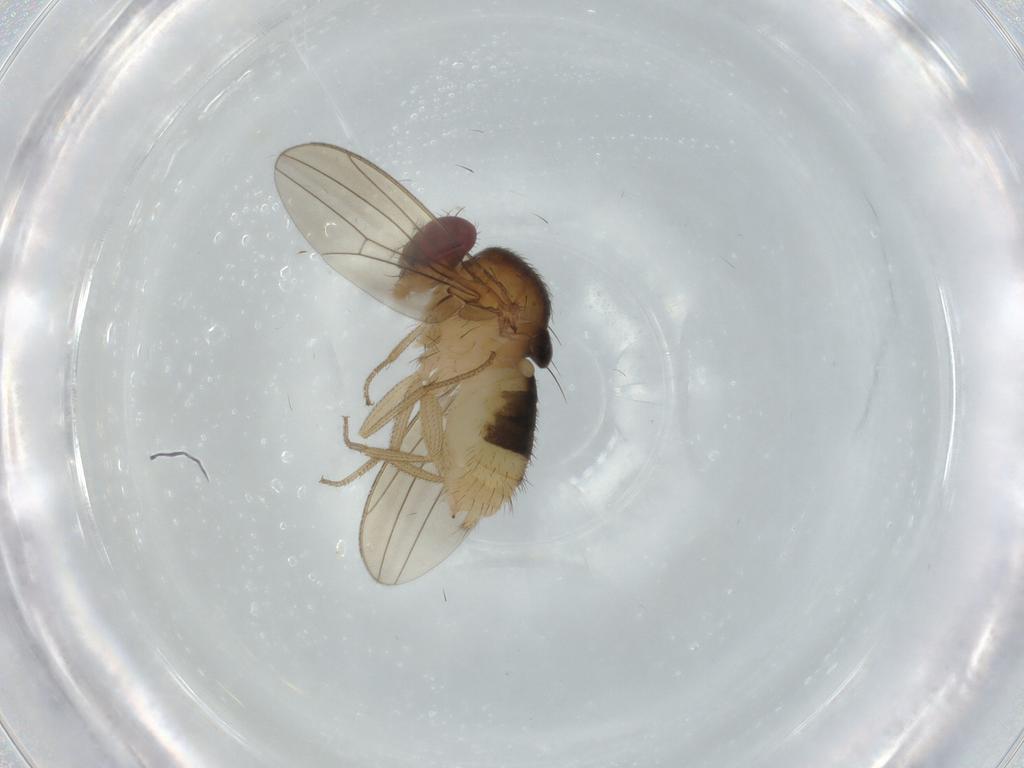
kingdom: Animalia
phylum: Arthropoda
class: Insecta
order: Diptera
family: Drosophilidae
